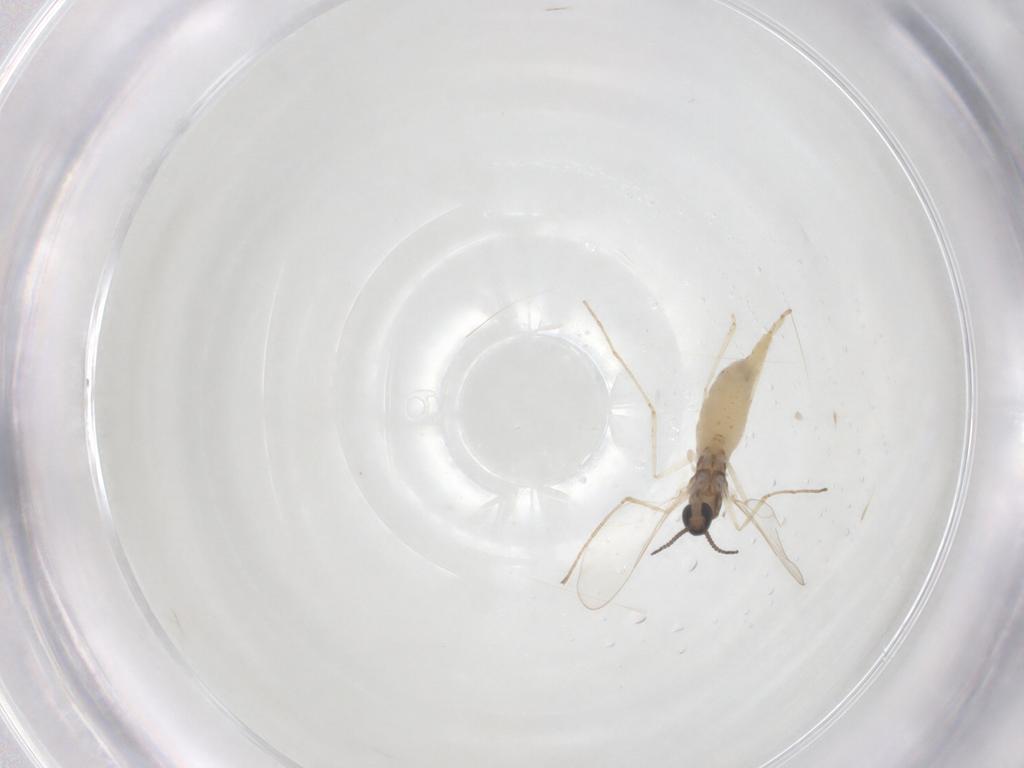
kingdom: Animalia
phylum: Arthropoda
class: Insecta
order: Diptera
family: Cecidomyiidae
